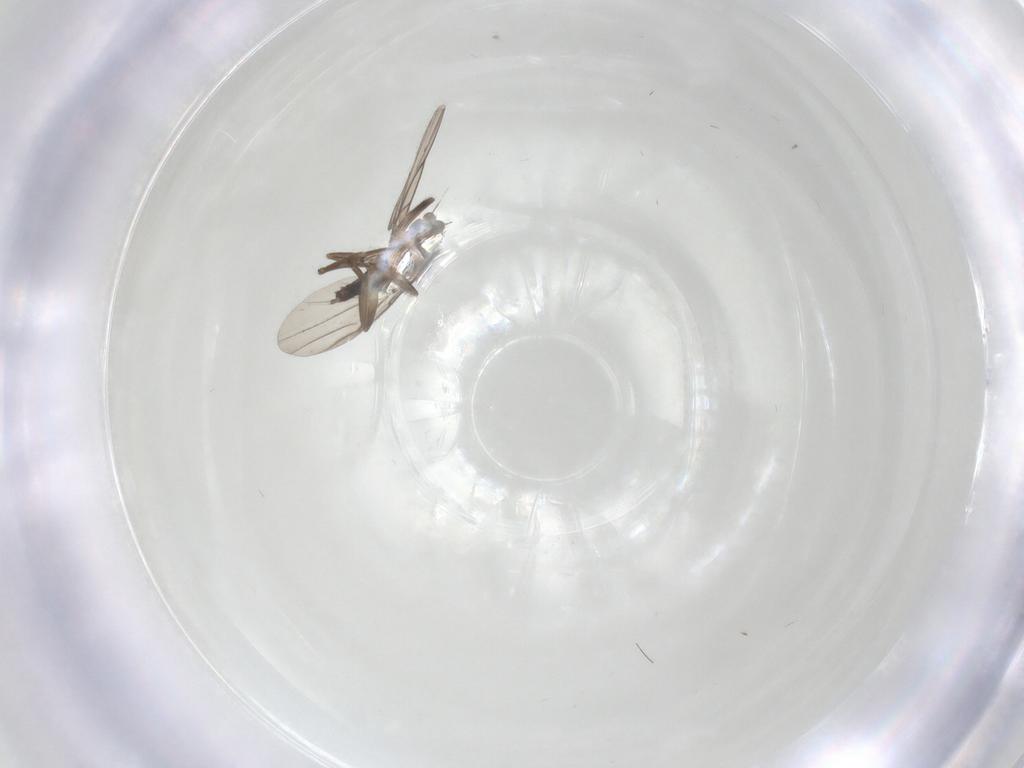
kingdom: Animalia
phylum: Arthropoda
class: Insecta
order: Diptera
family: Phoridae
